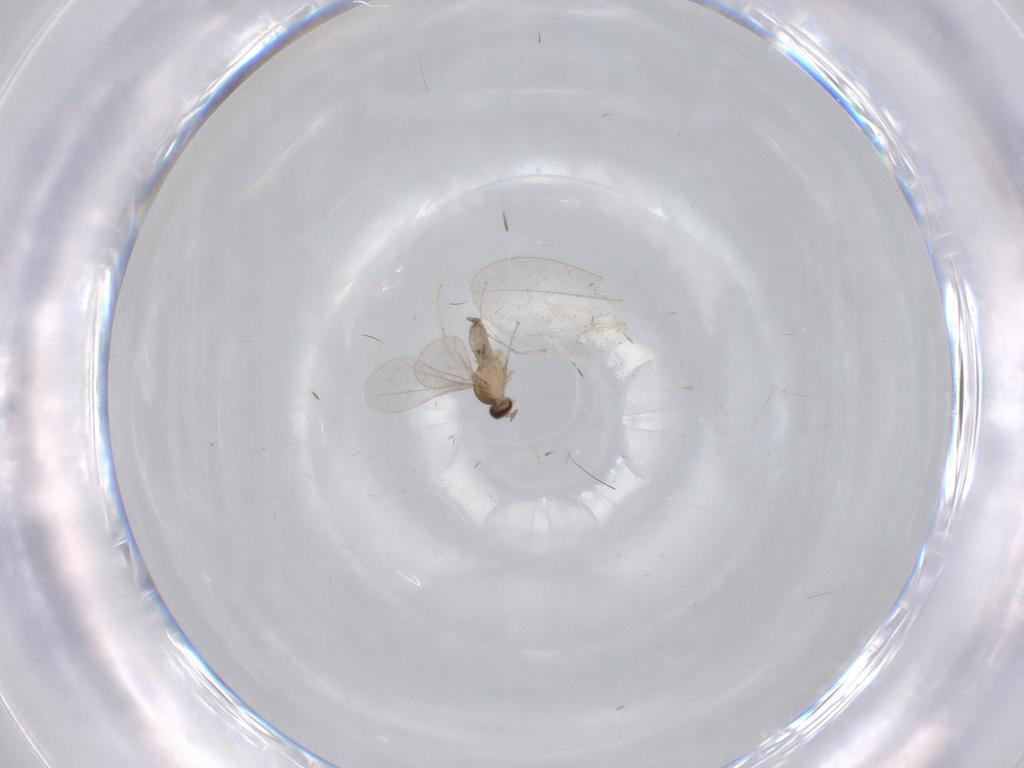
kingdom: Animalia
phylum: Arthropoda
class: Insecta
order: Diptera
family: Cecidomyiidae
